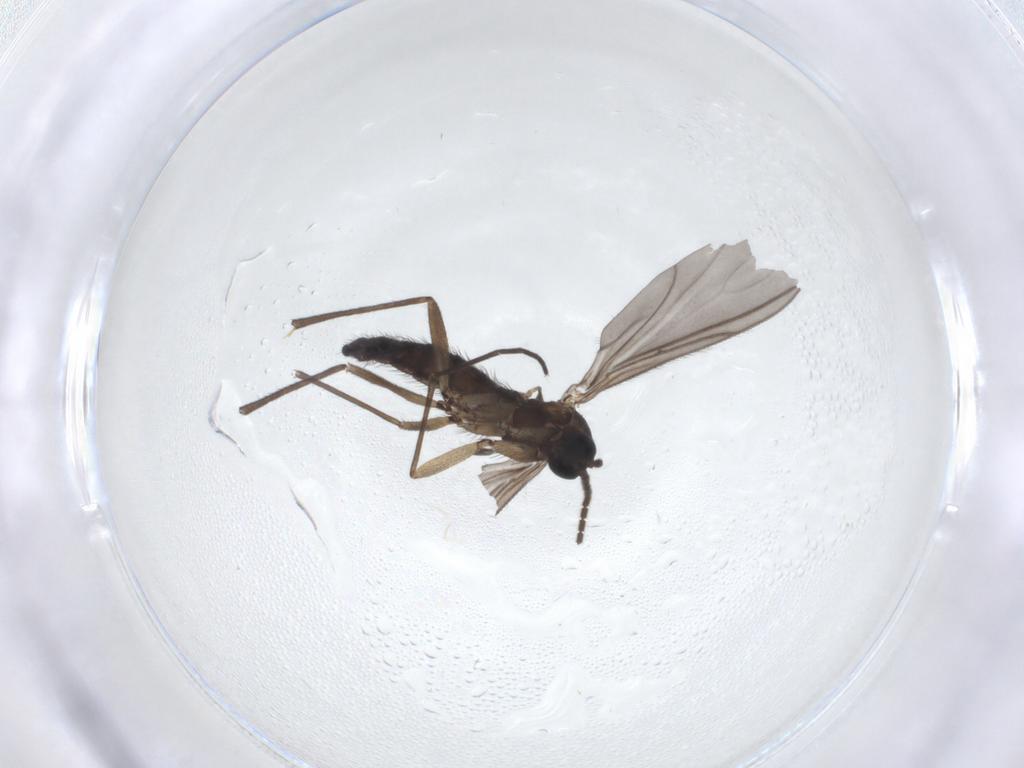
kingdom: Animalia
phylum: Arthropoda
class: Insecta
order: Diptera
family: Sciaridae
